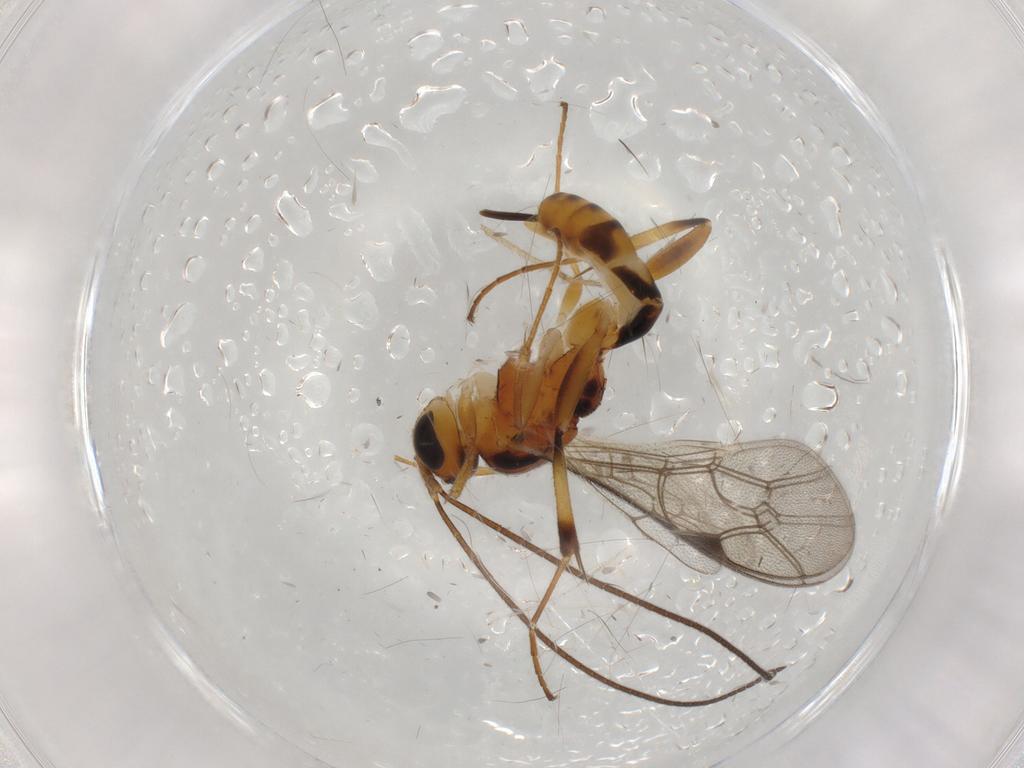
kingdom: Animalia
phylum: Arthropoda
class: Insecta
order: Hymenoptera
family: Ichneumonidae
